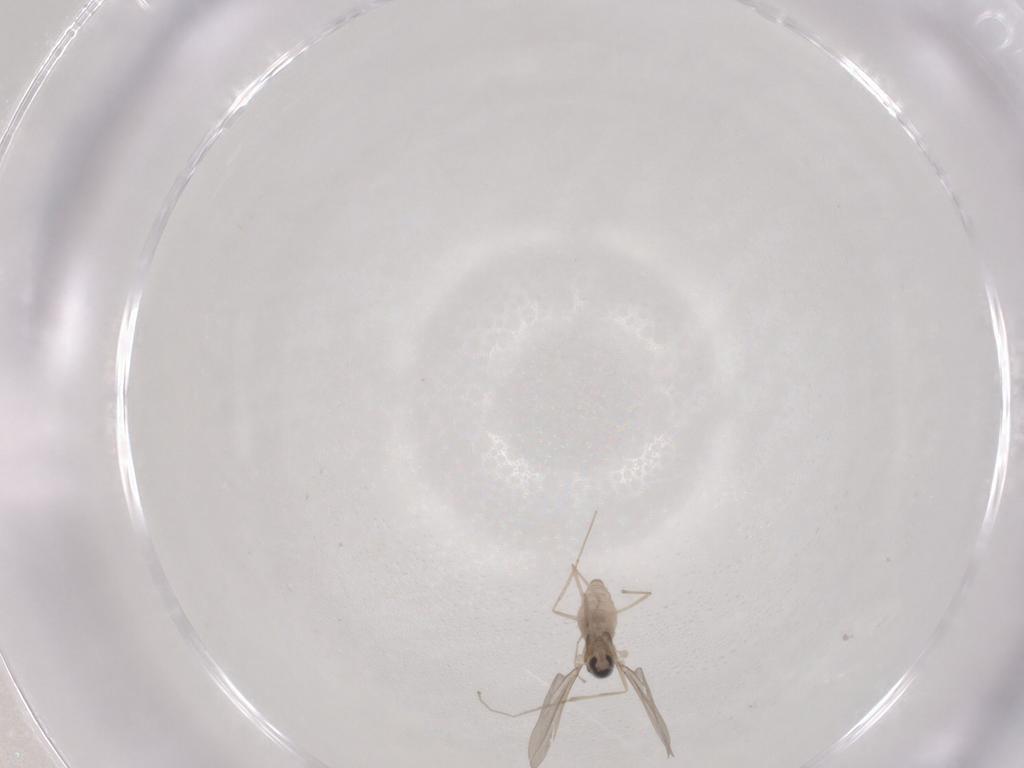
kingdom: Animalia
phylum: Arthropoda
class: Insecta
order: Diptera
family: Cecidomyiidae
